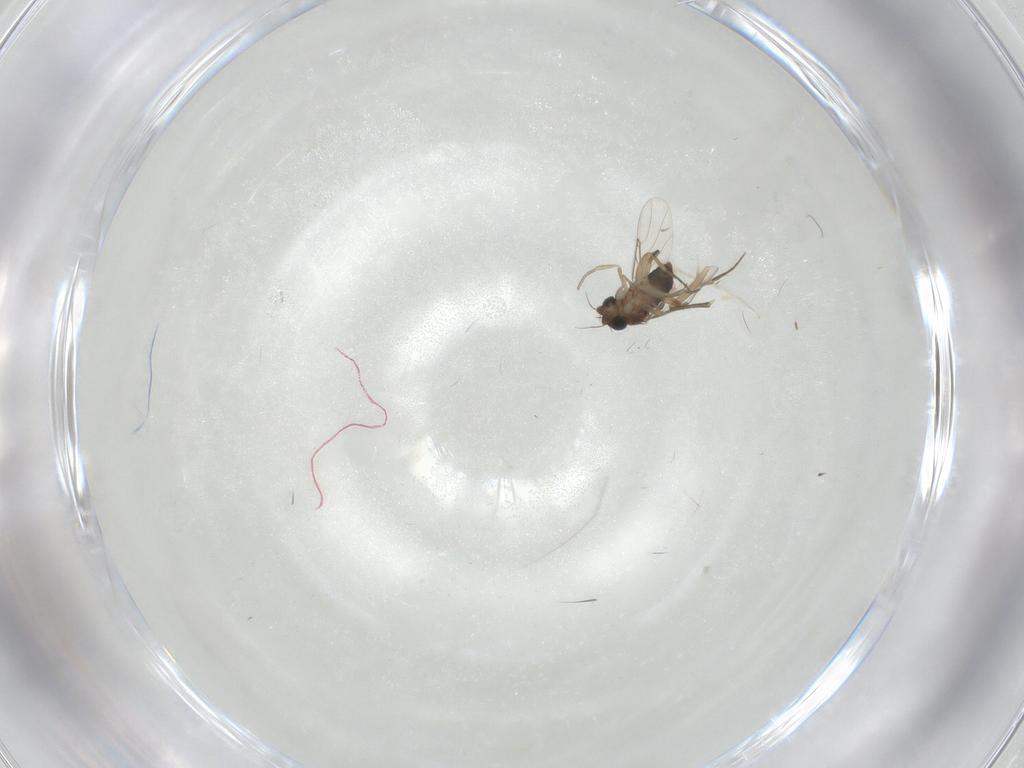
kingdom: Animalia
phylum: Arthropoda
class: Insecta
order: Diptera
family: Phoridae
